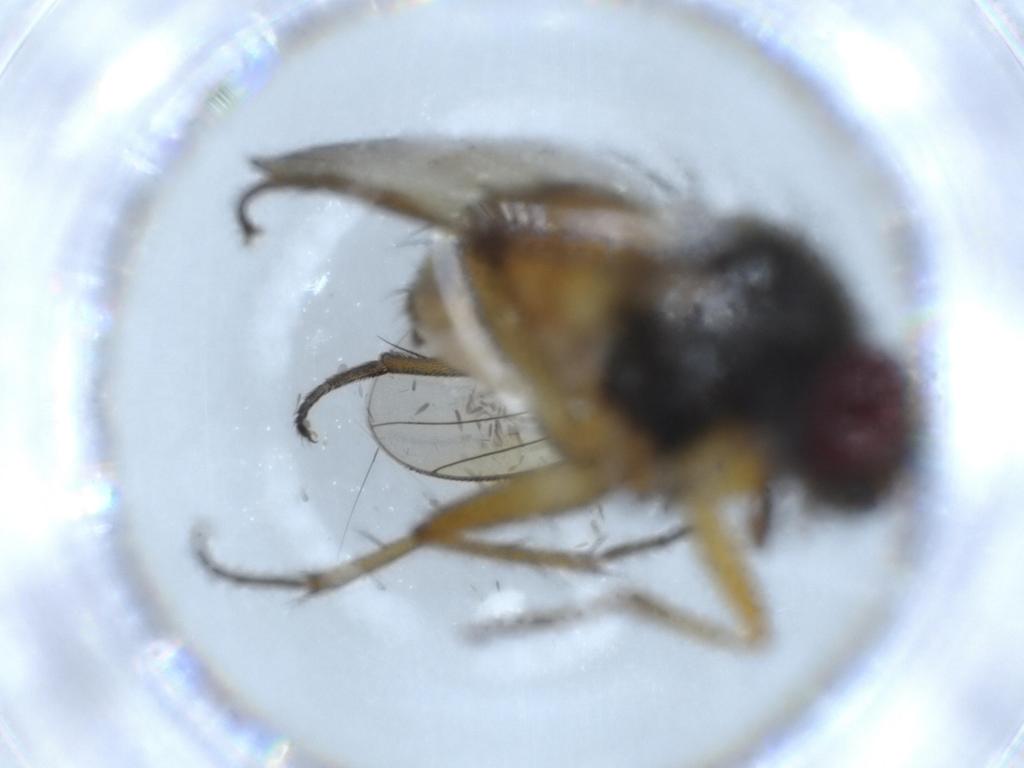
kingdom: Animalia
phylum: Arthropoda
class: Insecta
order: Diptera
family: Muscidae
